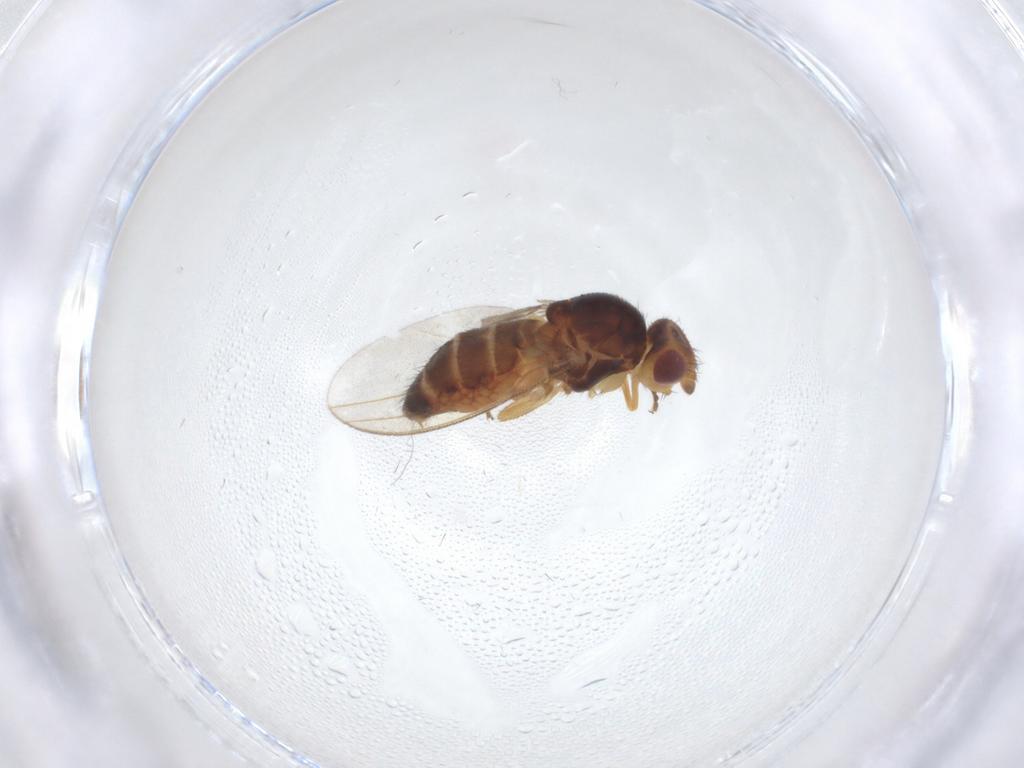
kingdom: Animalia
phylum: Arthropoda
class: Insecta
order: Diptera
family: Milichiidae
